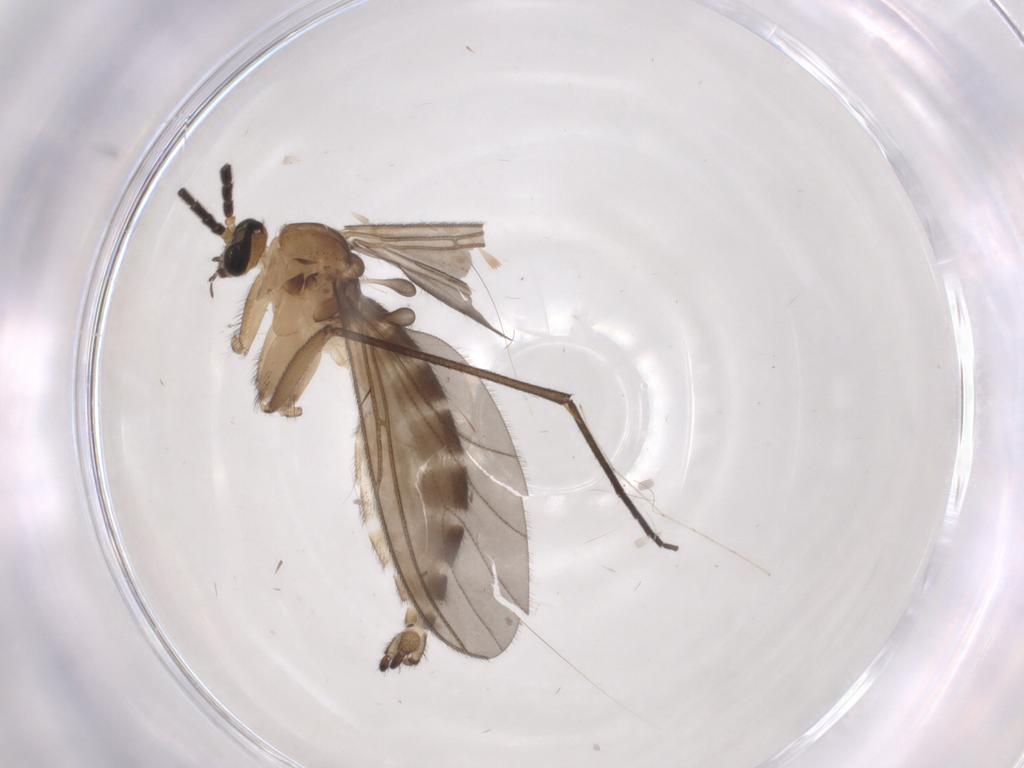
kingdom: Animalia
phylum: Arthropoda
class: Insecta
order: Diptera
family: Sciaridae
